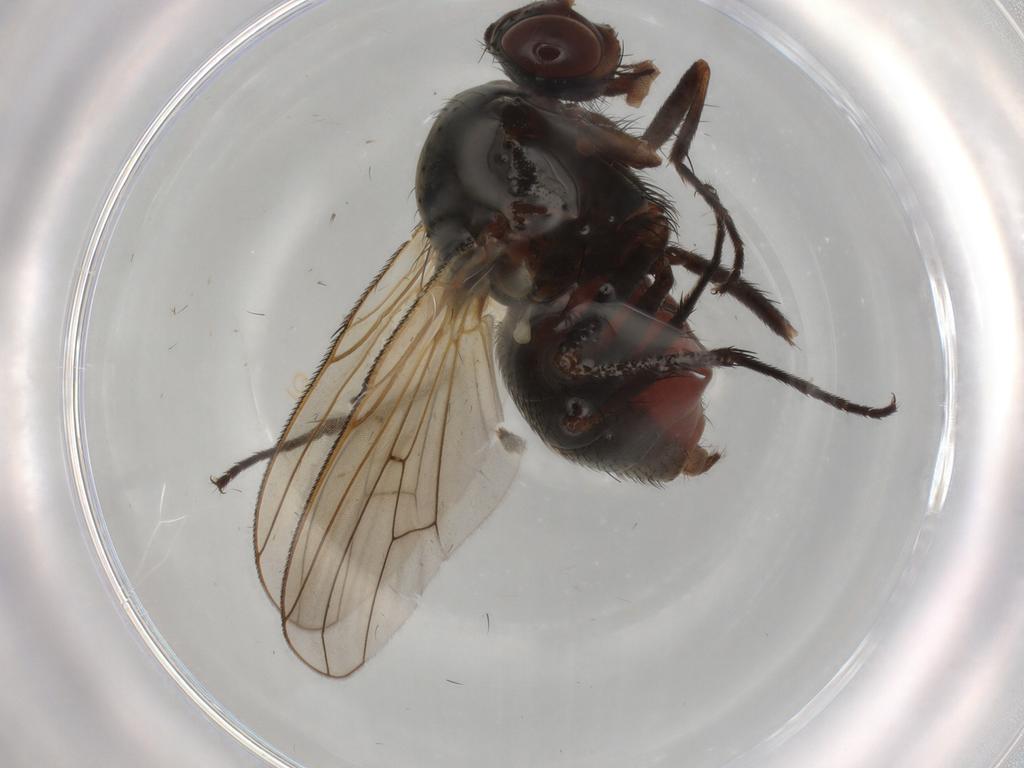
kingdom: Animalia
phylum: Arthropoda
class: Insecta
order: Diptera
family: Anthomyiidae
